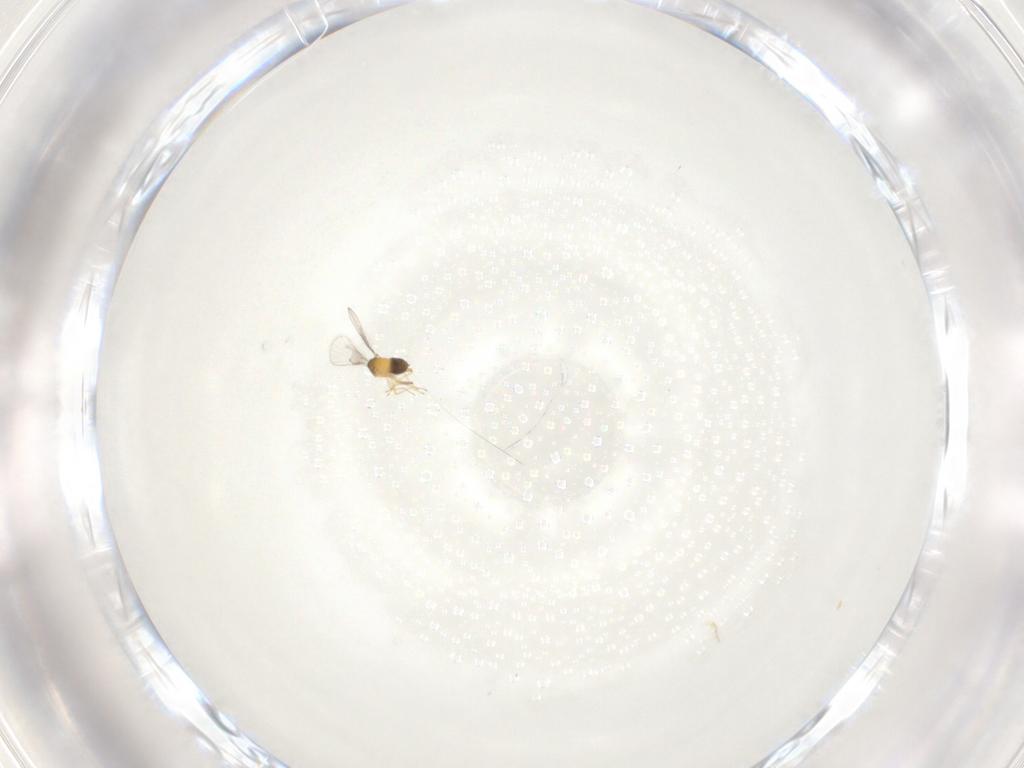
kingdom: Animalia
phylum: Arthropoda
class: Insecta
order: Hymenoptera
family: Trichogrammatidae
